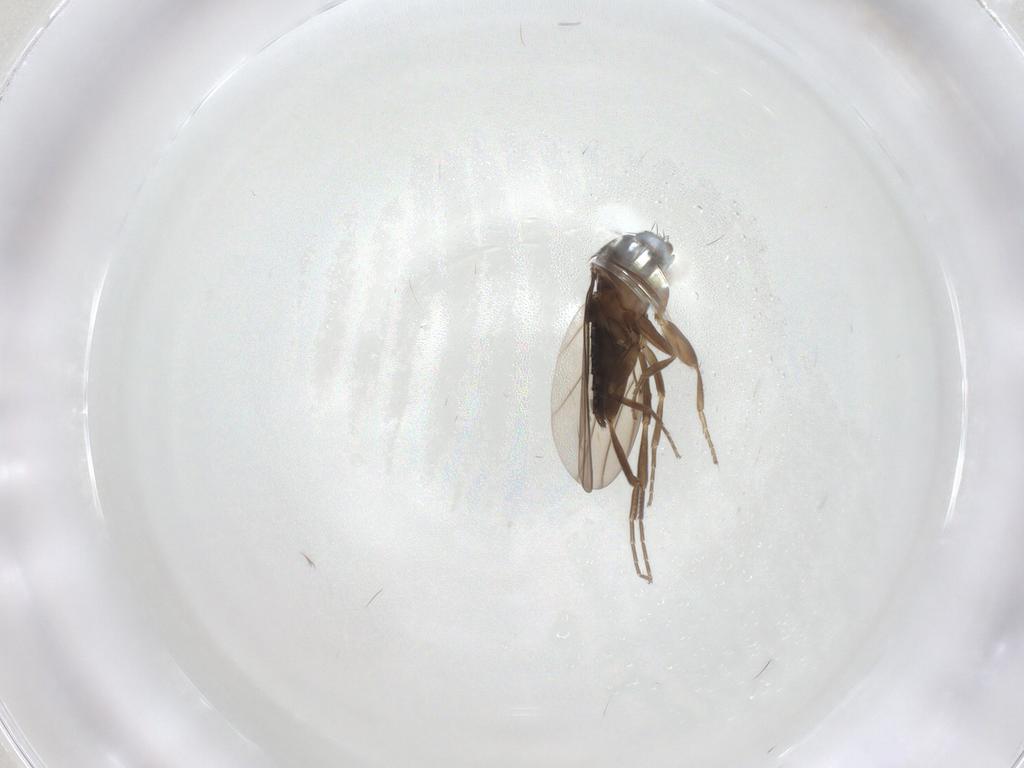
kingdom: Animalia
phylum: Arthropoda
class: Insecta
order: Diptera
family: Phoridae
